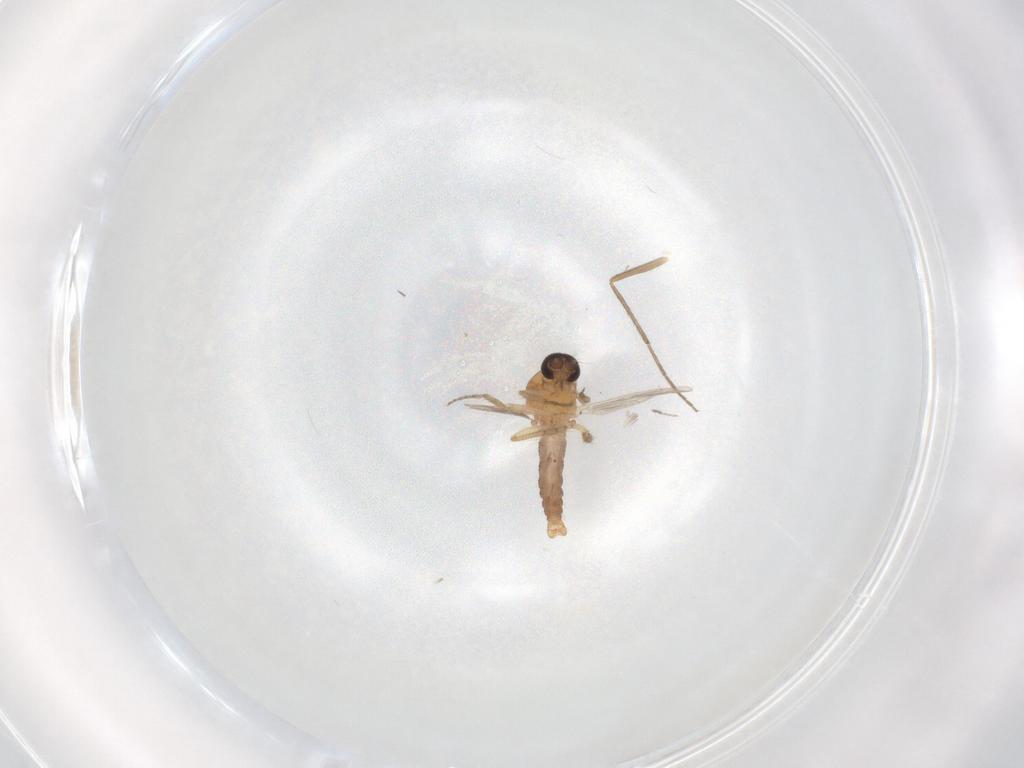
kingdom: Animalia
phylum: Arthropoda
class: Insecta
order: Diptera
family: Ceratopogonidae
